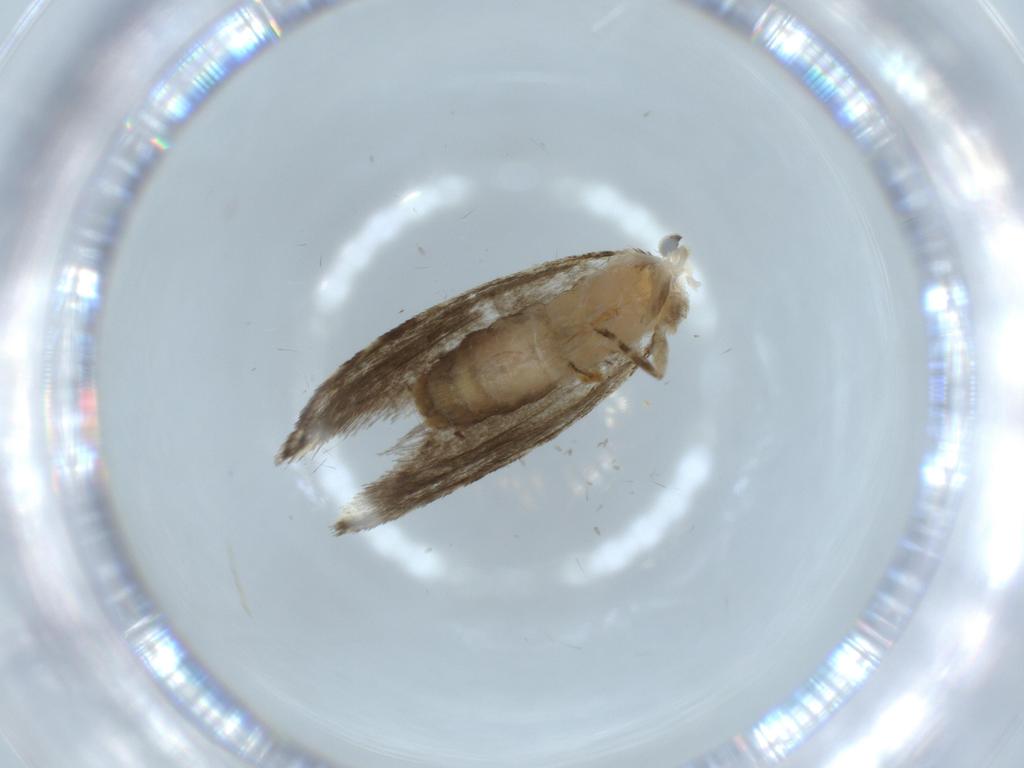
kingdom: Animalia
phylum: Arthropoda
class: Insecta
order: Lepidoptera
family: Tineidae
